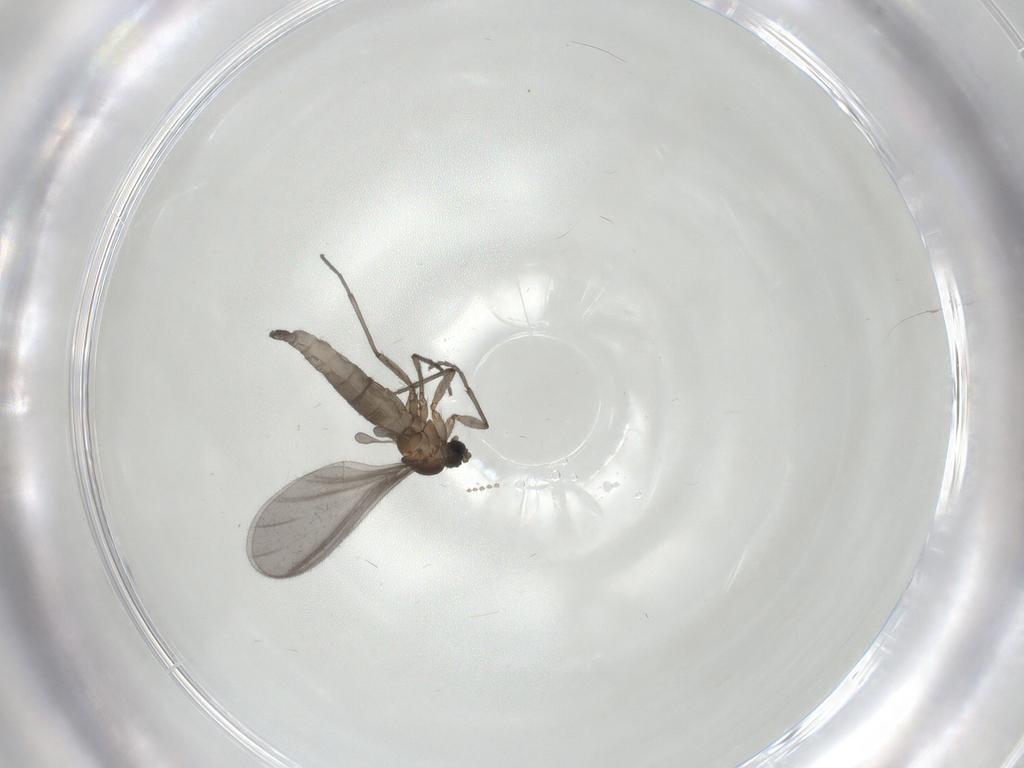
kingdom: Animalia
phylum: Arthropoda
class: Insecta
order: Diptera
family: Sciaridae
